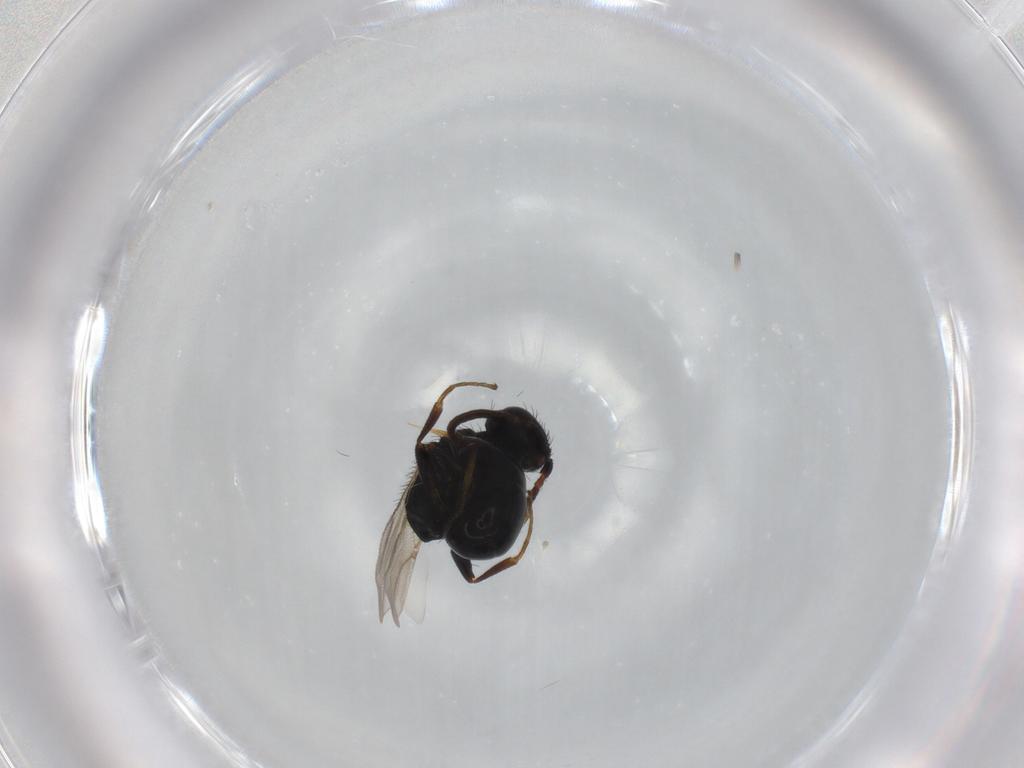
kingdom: Animalia
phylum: Arthropoda
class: Insecta
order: Hymenoptera
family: Bethylidae
